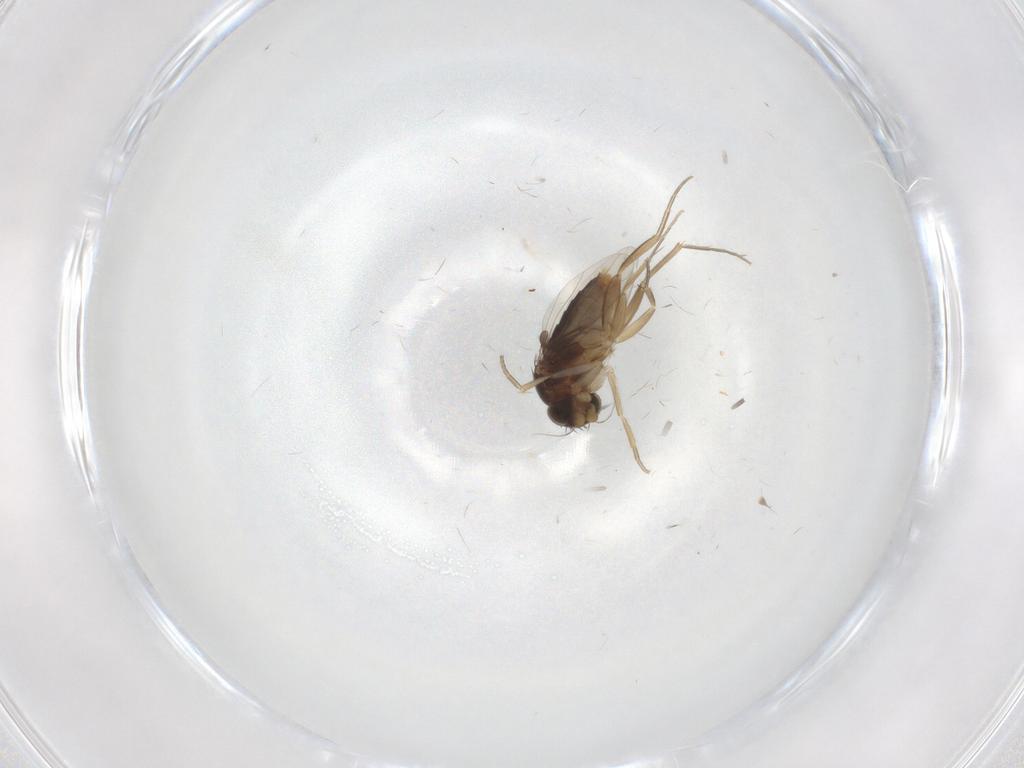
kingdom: Animalia
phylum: Arthropoda
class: Insecta
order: Diptera
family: Phoridae
